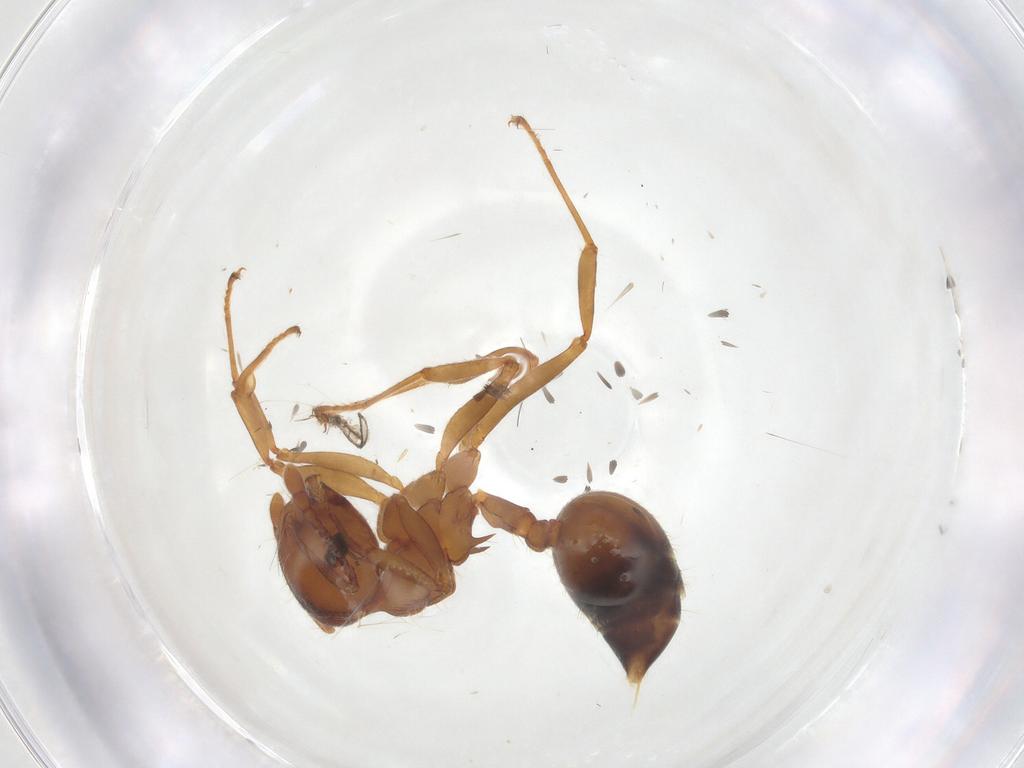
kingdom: Animalia
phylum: Arthropoda
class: Insecta
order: Hymenoptera
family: Formicidae
